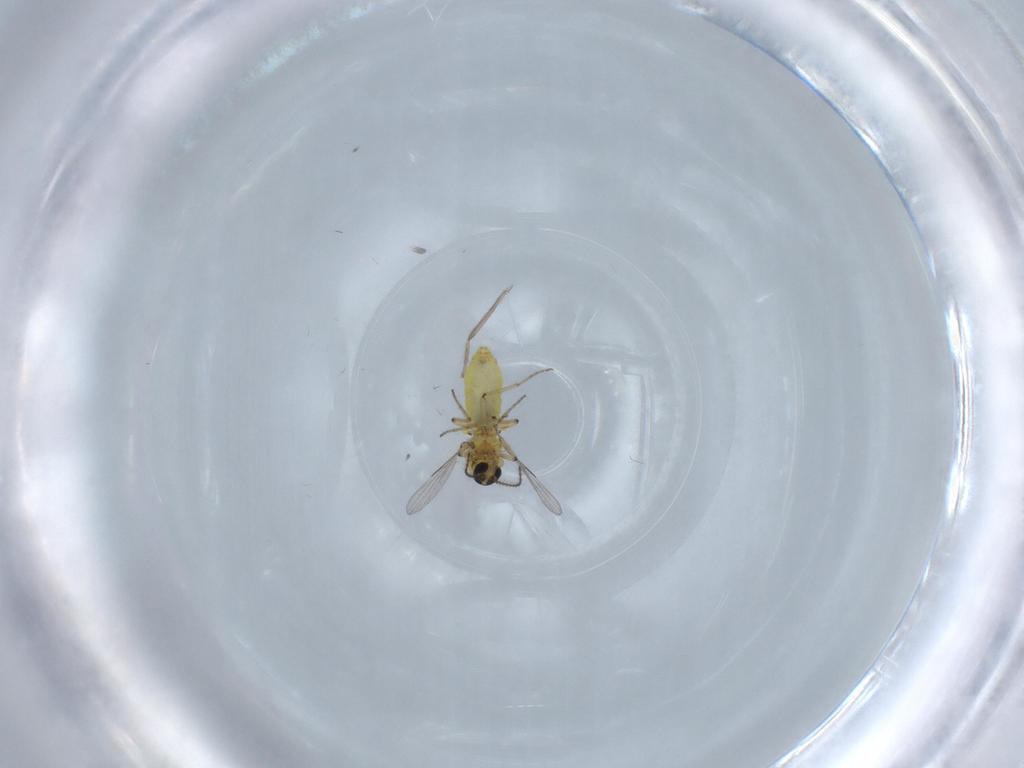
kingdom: Animalia
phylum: Arthropoda
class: Insecta
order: Diptera
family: Ceratopogonidae
